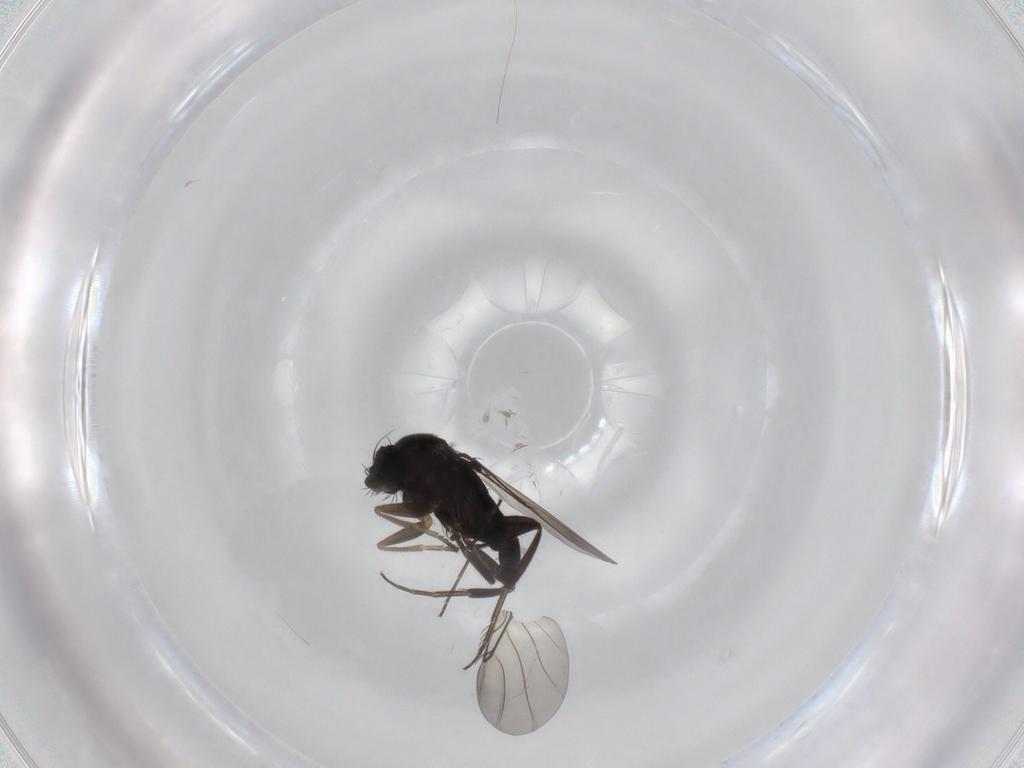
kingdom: Animalia
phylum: Arthropoda
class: Insecta
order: Diptera
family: Phoridae
